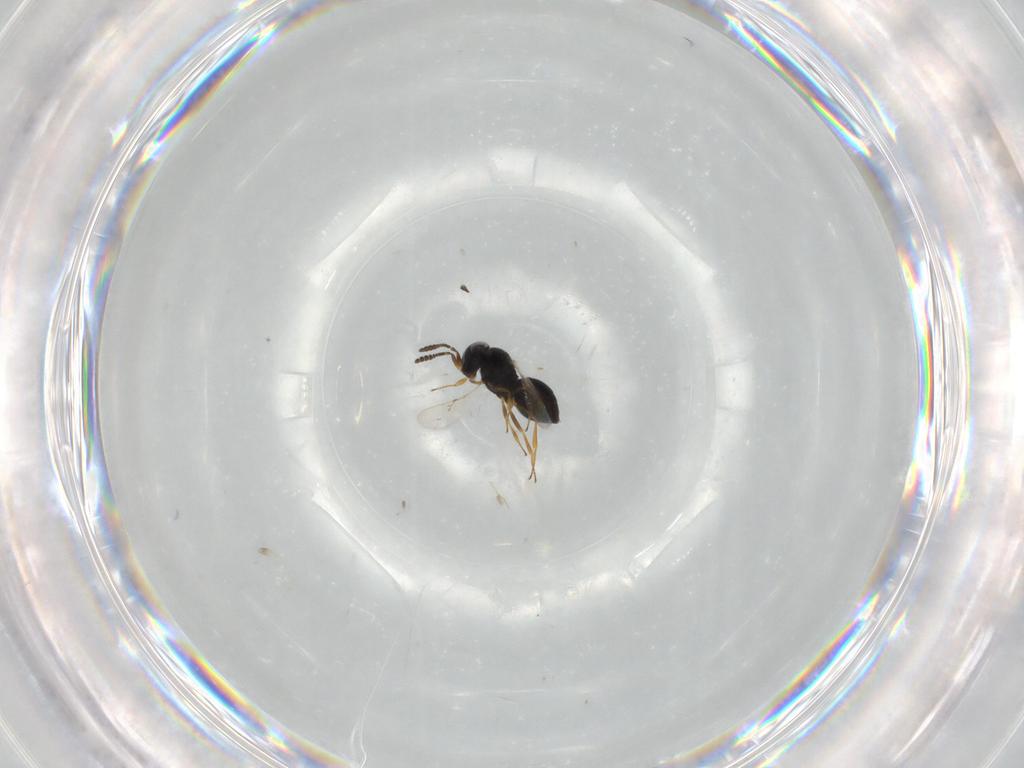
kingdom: Animalia
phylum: Arthropoda
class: Insecta
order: Hymenoptera
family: Scelionidae
